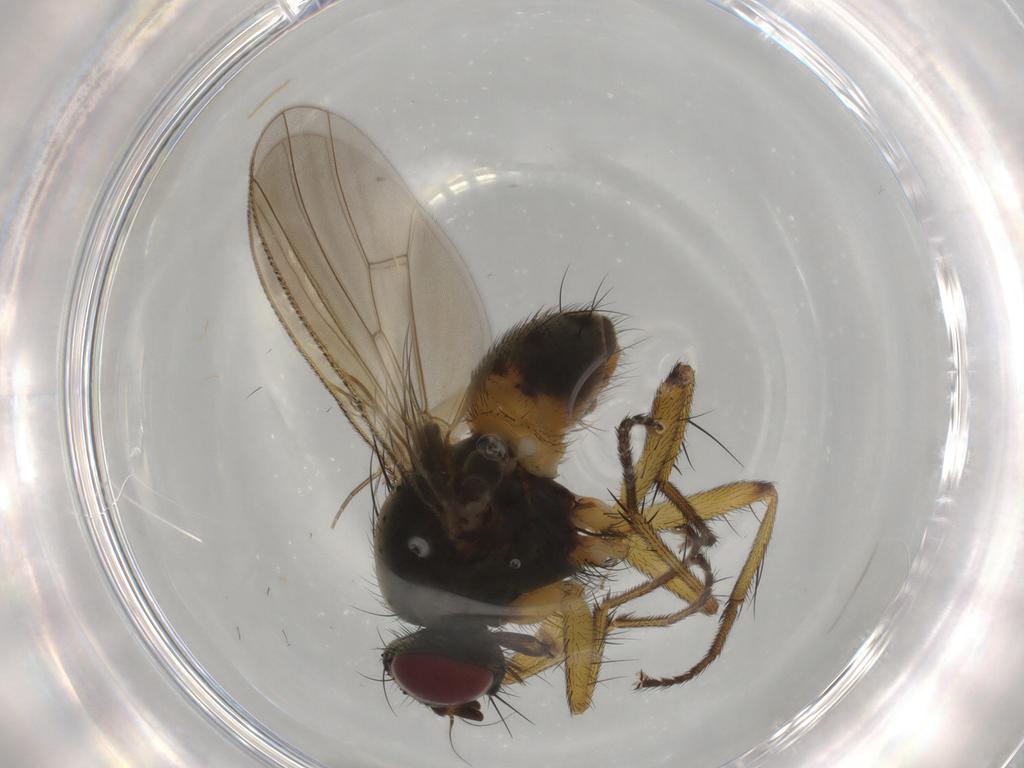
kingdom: Animalia
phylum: Arthropoda
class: Insecta
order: Diptera
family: Muscidae
